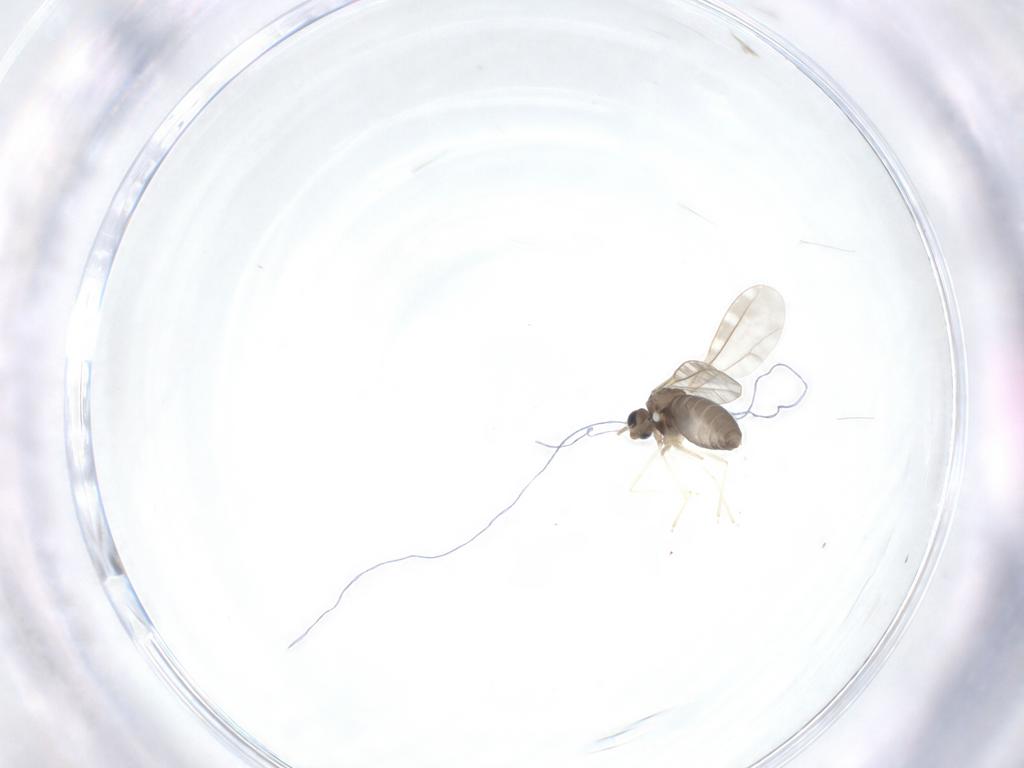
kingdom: Animalia
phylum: Arthropoda
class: Insecta
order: Diptera
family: Cecidomyiidae
